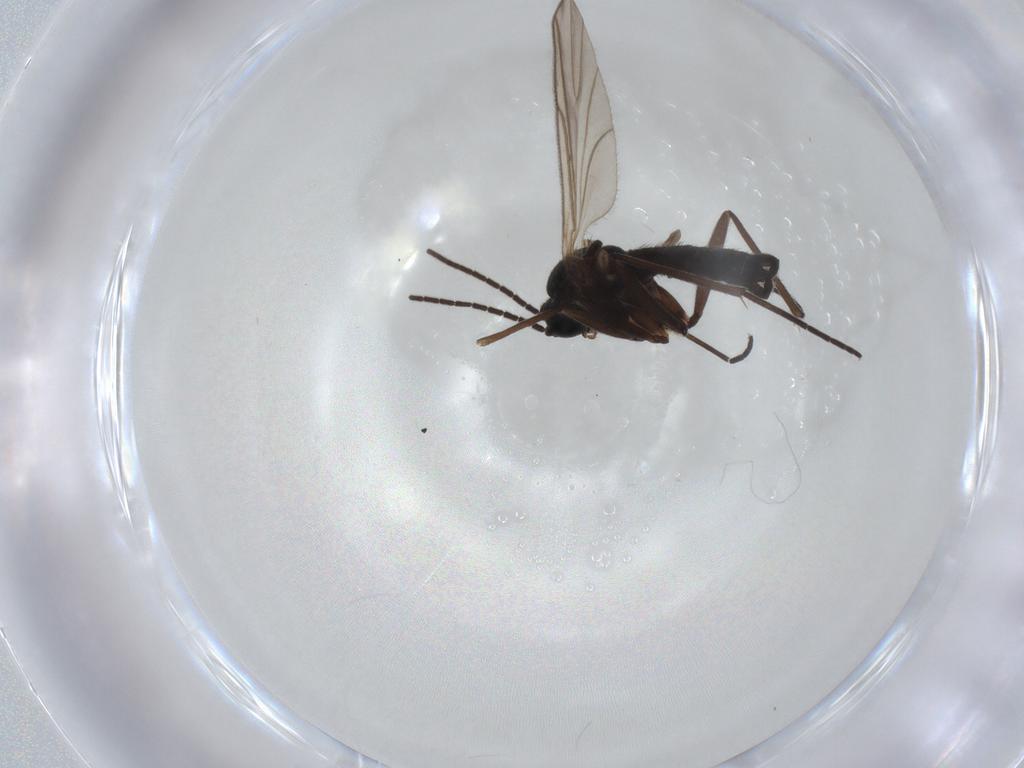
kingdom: Animalia
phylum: Arthropoda
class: Insecta
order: Diptera
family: Sciaridae
